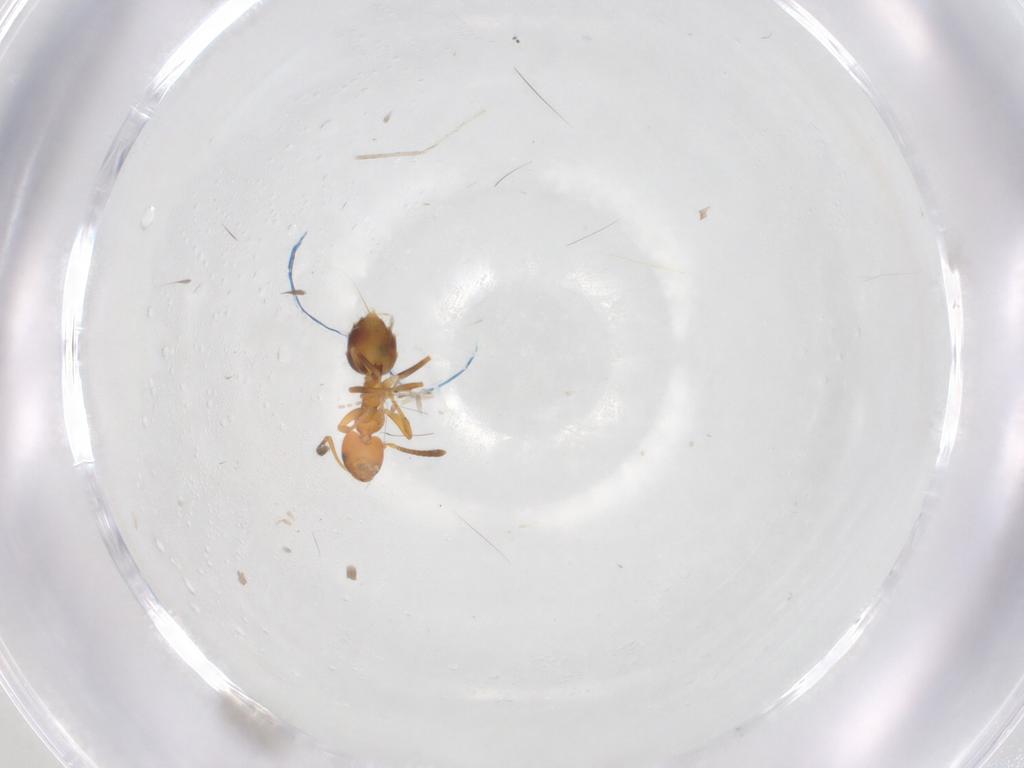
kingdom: Animalia
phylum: Arthropoda
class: Insecta
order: Hymenoptera
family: Formicidae
